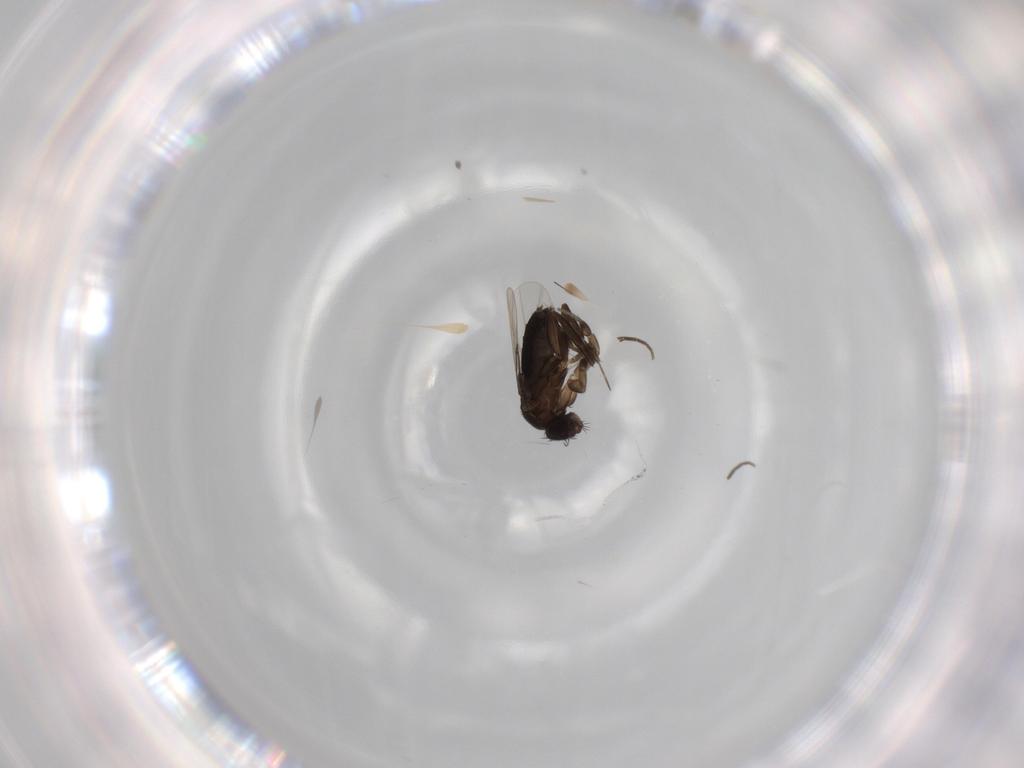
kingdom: Animalia
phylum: Arthropoda
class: Insecta
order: Diptera
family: Phoridae
